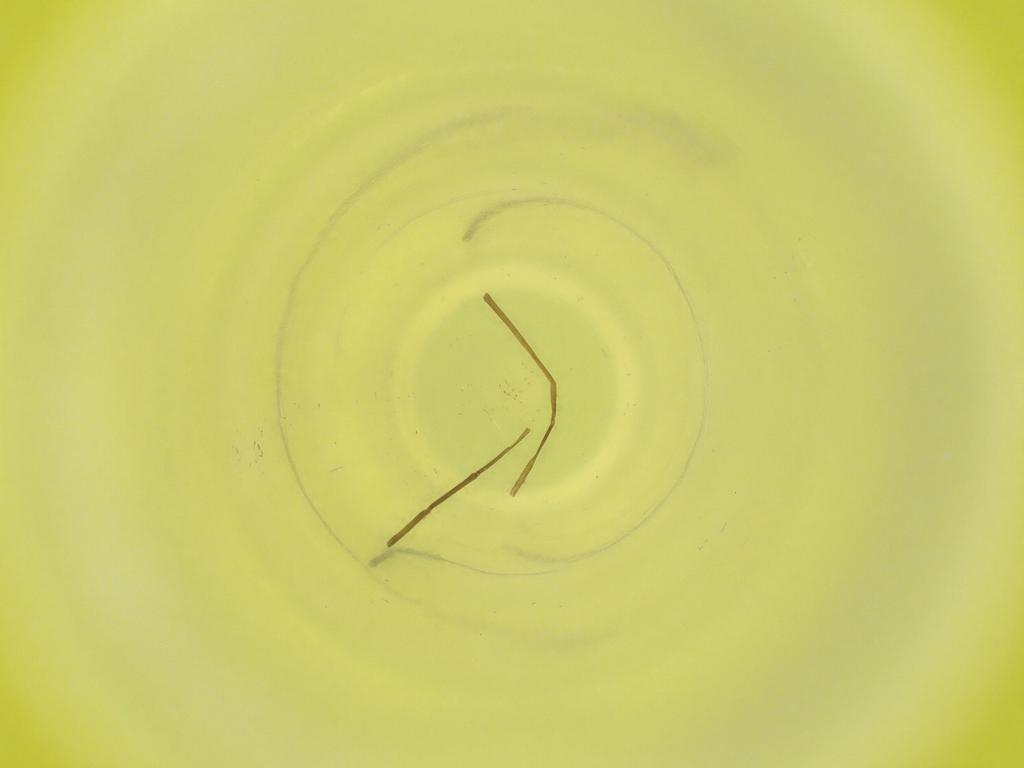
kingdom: Animalia
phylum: Arthropoda
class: Insecta
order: Diptera
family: Cecidomyiidae
